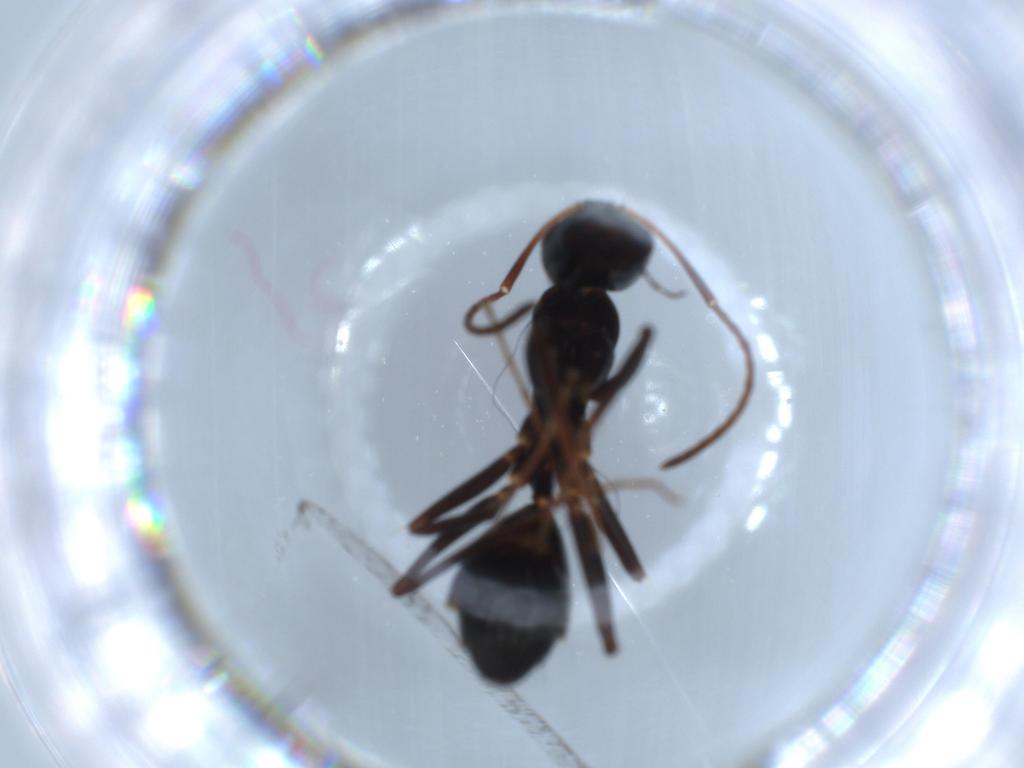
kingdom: Animalia
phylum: Arthropoda
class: Insecta
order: Hymenoptera
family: Formicidae
